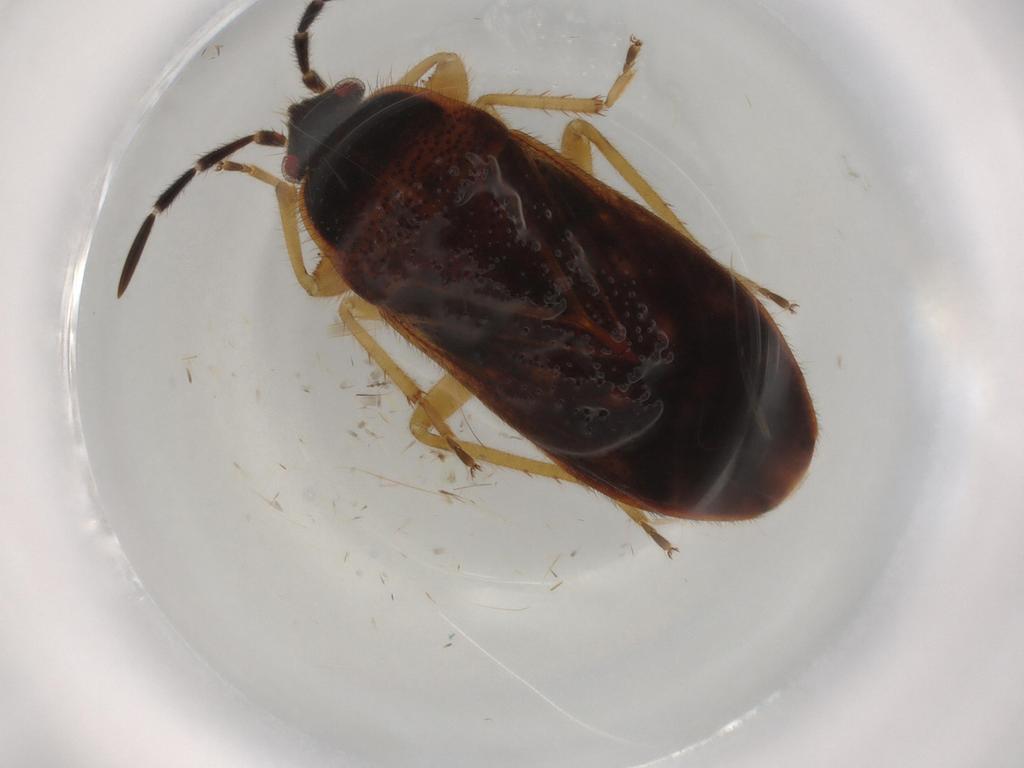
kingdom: Animalia
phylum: Arthropoda
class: Insecta
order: Hemiptera
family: Rhyparochromidae
